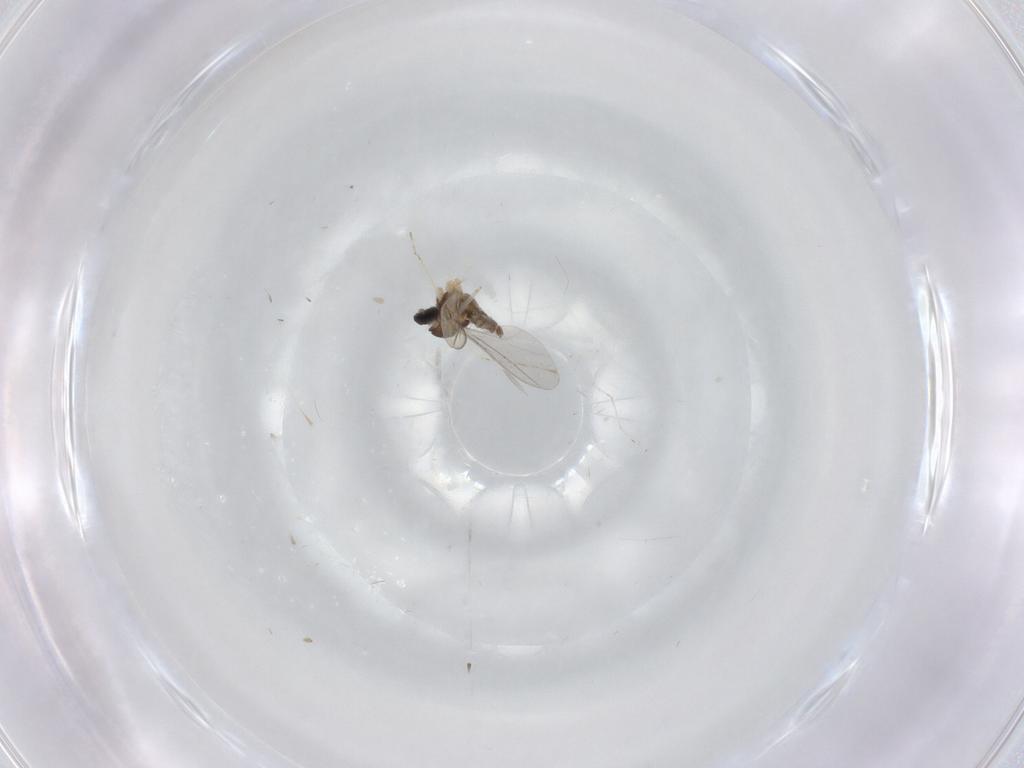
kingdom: Animalia
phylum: Arthropoda
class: Insecta
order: Diptera
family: Cecidomyiidae
